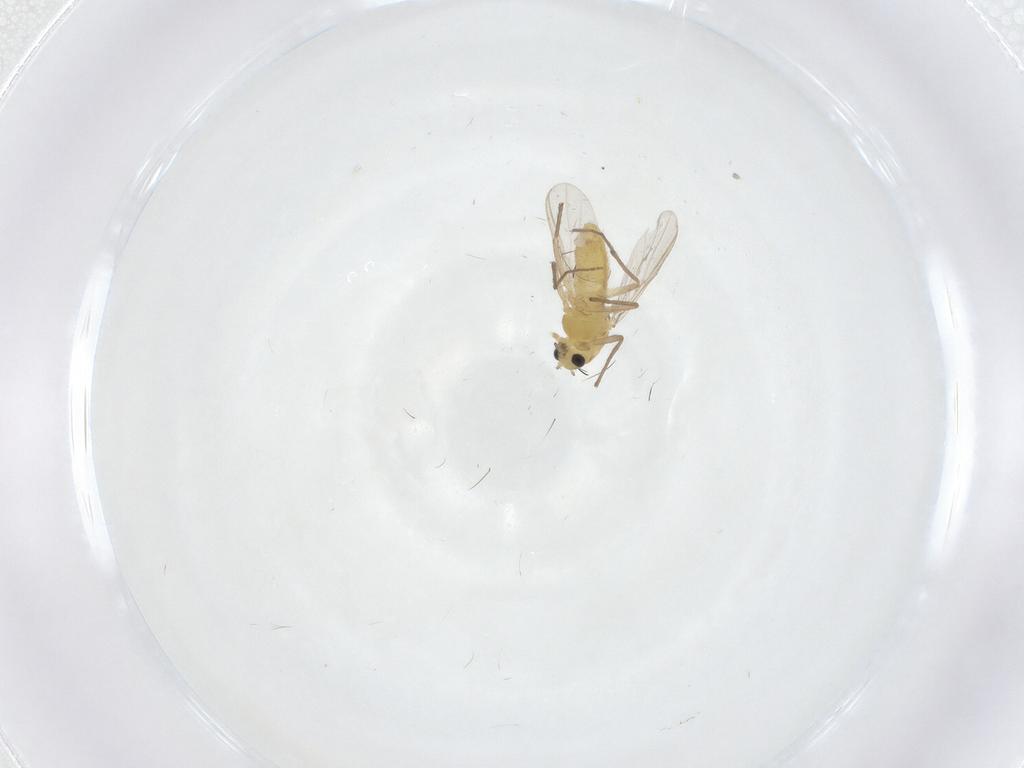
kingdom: Animalia
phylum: Arthropoda
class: Insecta
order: Diptera
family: Chironomidae
